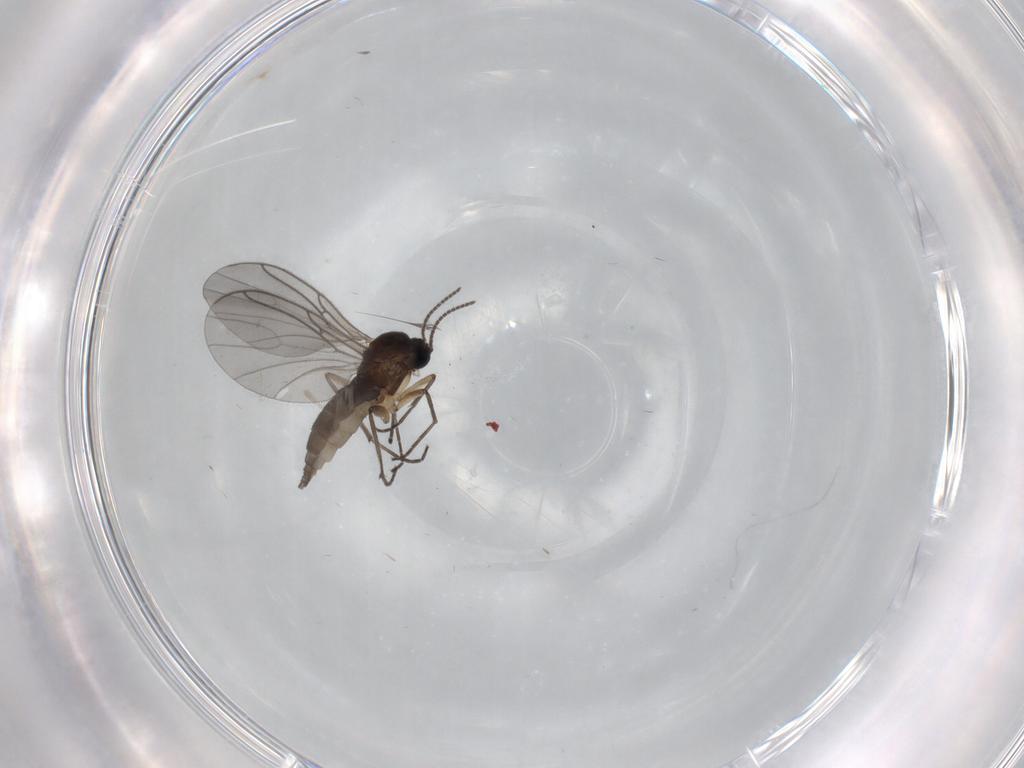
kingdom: Animalia
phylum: Arthropoda
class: Insecta
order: Diptera
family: Sciaridae
